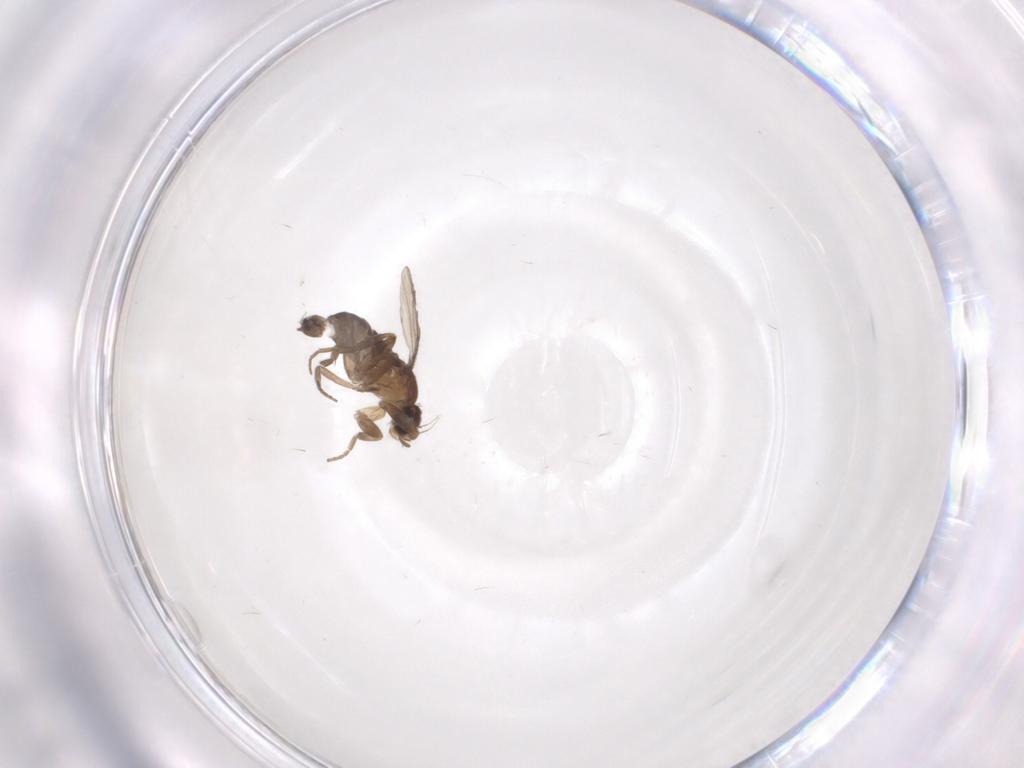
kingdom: Animalia
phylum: Arthropoda
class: Insecta
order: Diptera
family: Phoridae
